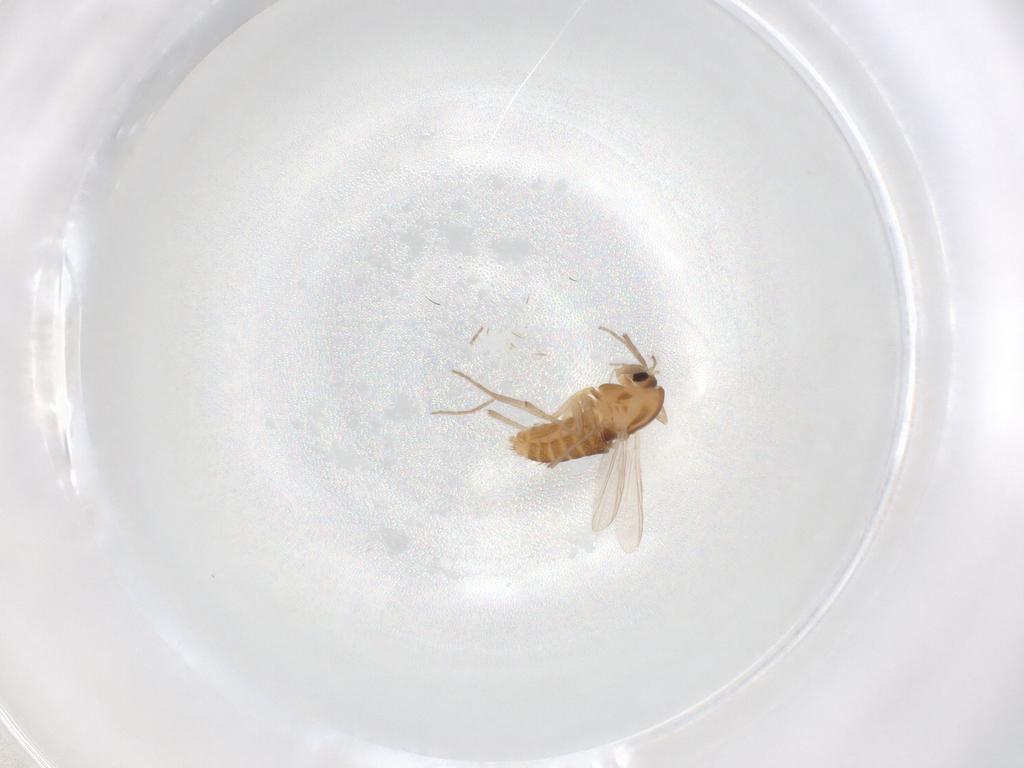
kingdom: Animalia
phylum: Arthropoda
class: Insecta
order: Diptera
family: Chironomidae
